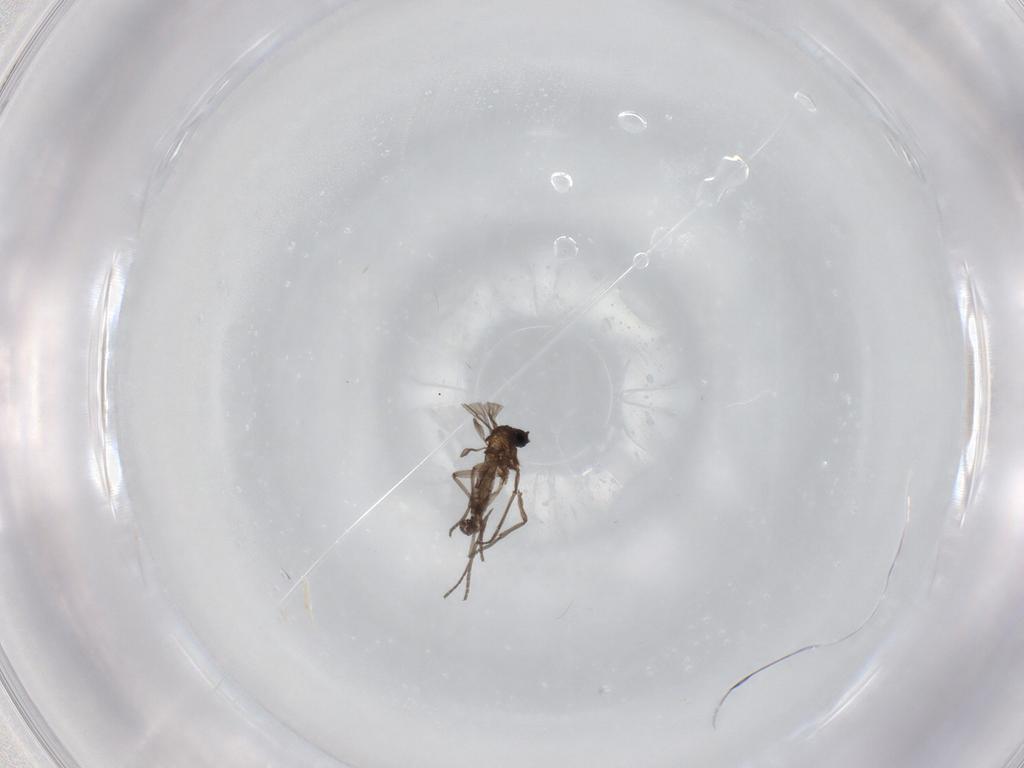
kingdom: Animalia
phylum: Arthropoda
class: Insecta
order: Diptera
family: Sciaridae
